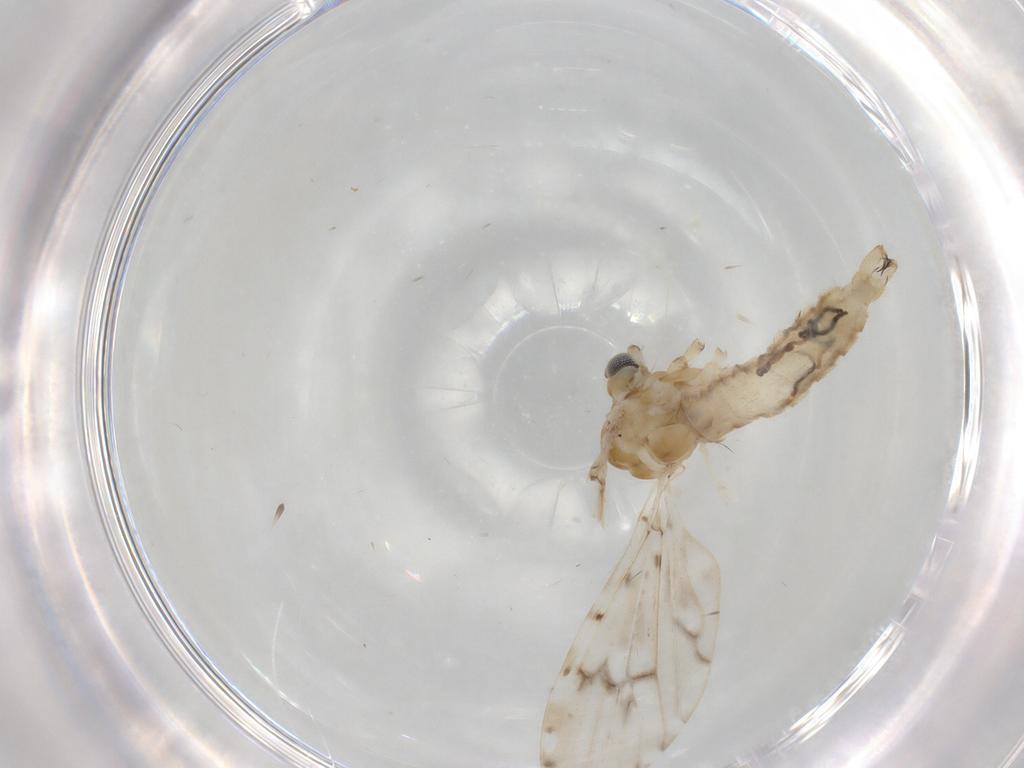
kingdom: Animalia
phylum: Arthropoda
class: Insecta
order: Diptera
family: Limoniidae
